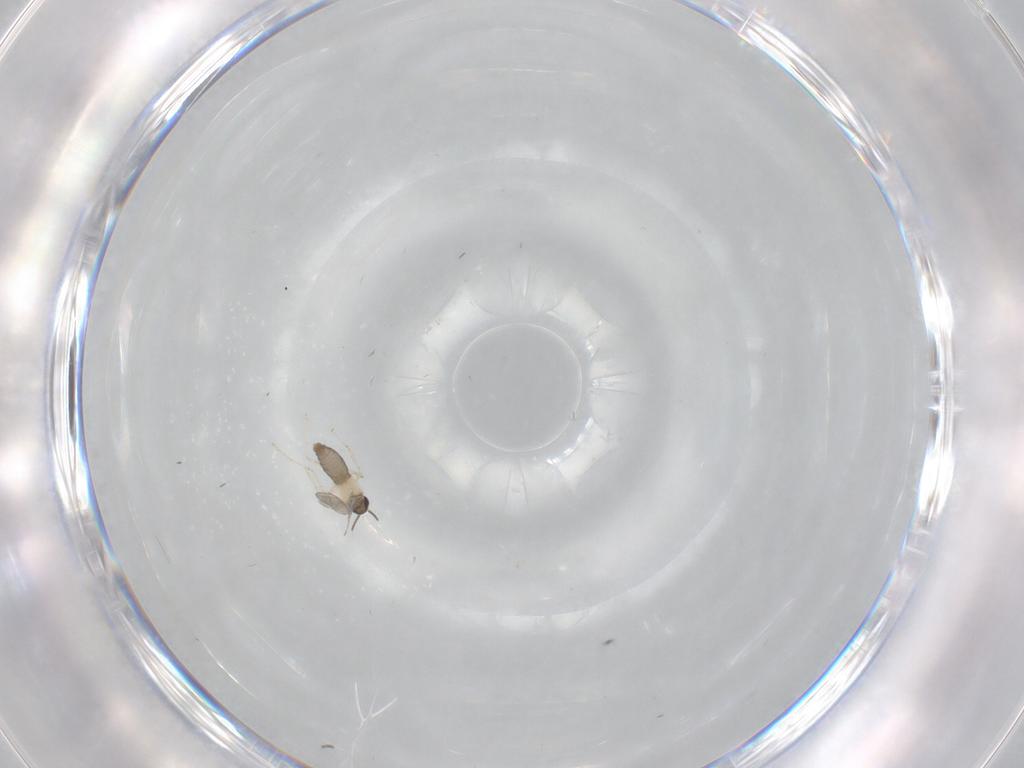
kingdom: Animalia
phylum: Arthropoda
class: Insecta
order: Diptera
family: Cecidomyiidae
